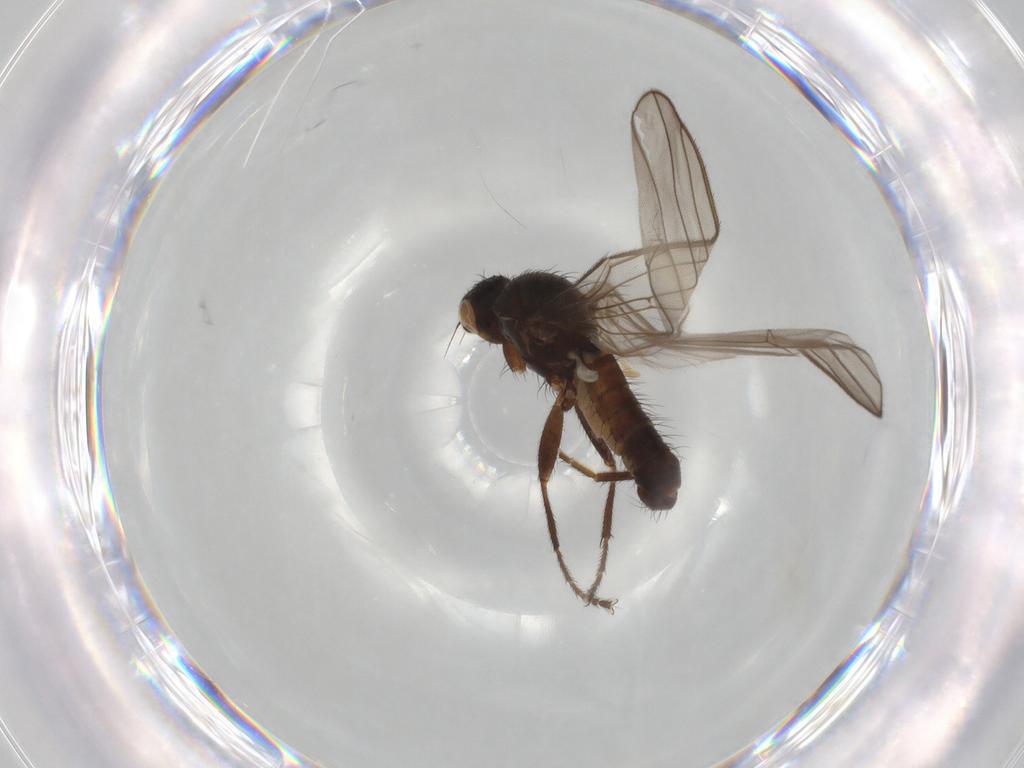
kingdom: Animalia
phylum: Arthropoda
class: Insecta
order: Diptera
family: Heleomyzidae
